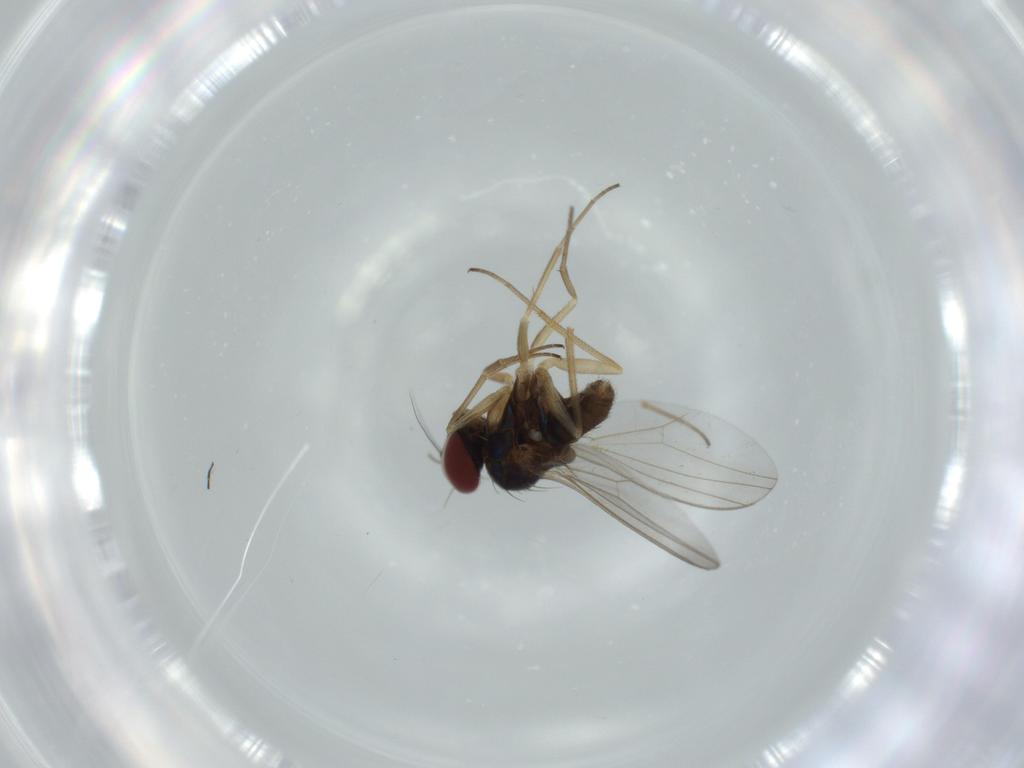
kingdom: Animalia
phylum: Arthropoda
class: Insecta
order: Diptera
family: Dolichopodidae
